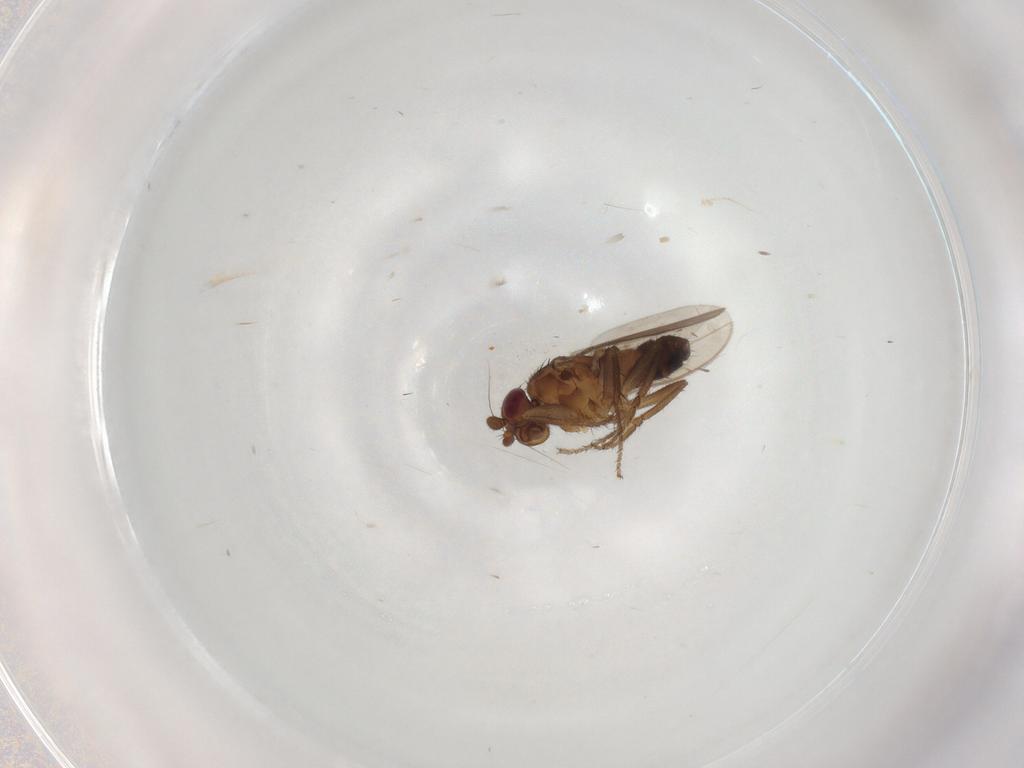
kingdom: Animalia
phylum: Arthropoda
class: Insecta
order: Diptera
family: Sphaeroceridae
